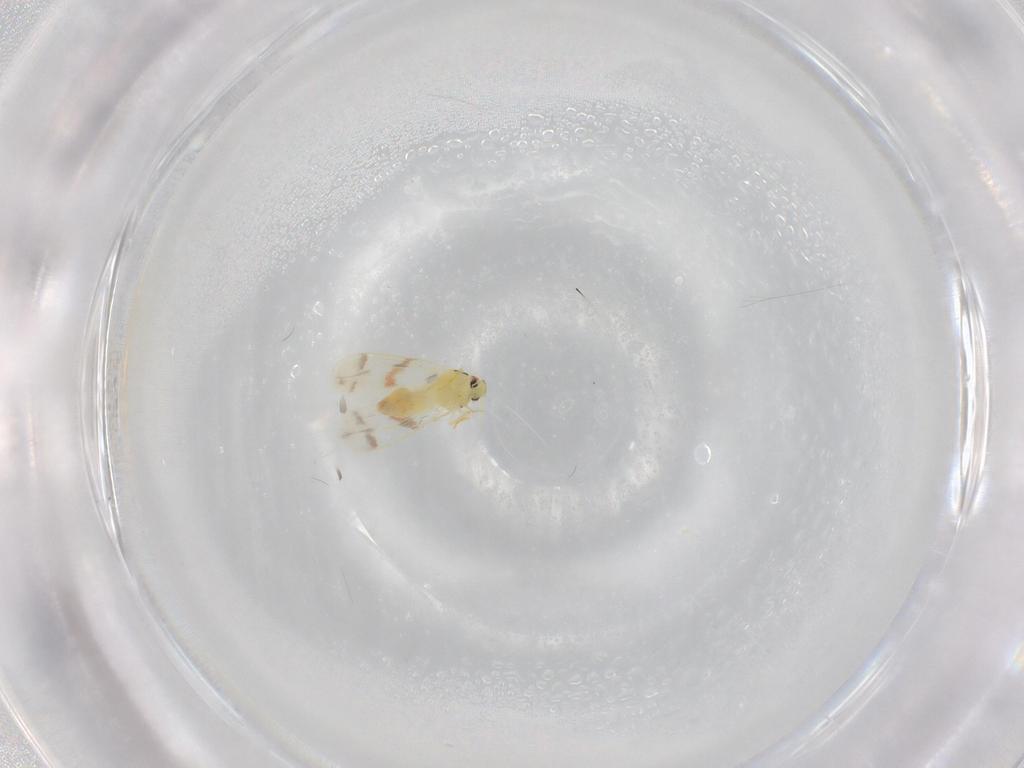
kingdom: Animalia
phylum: Arthropoda
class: Insecta
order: Hemiptera
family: Aleyrodidae
